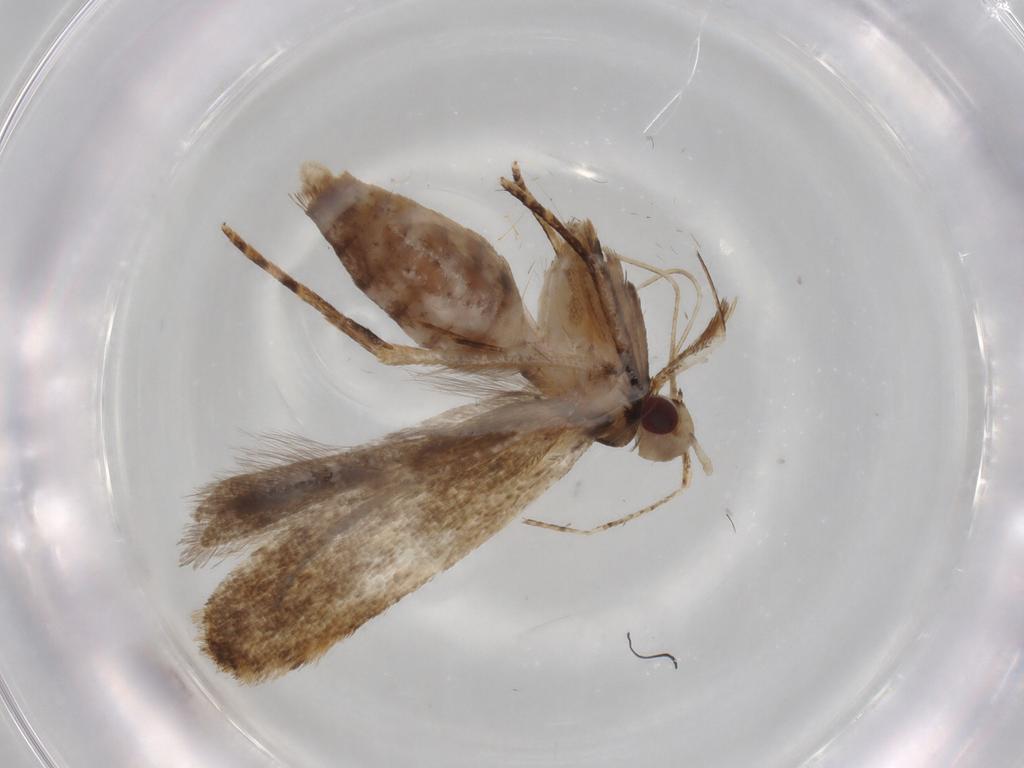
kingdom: Animalia
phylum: Arthropoda
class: Insecta
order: Lepidoptera
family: Gelechiidae
